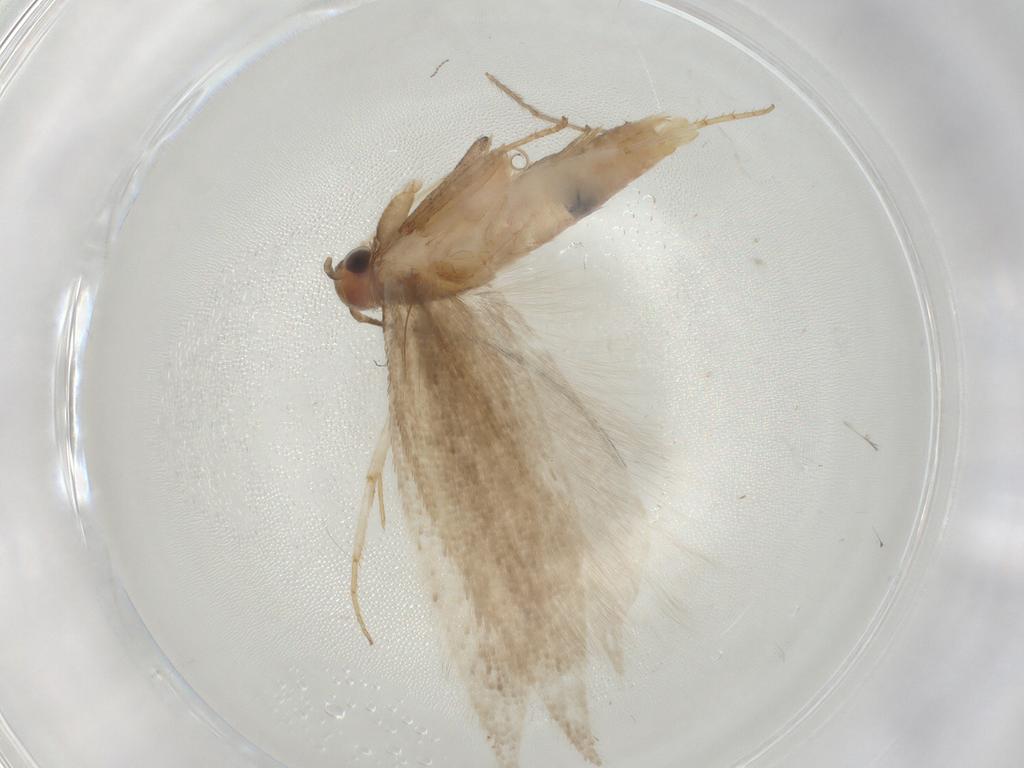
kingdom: Animalia
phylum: Arthropoda
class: Insecta
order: Lepidoptera
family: Gelechiidae
